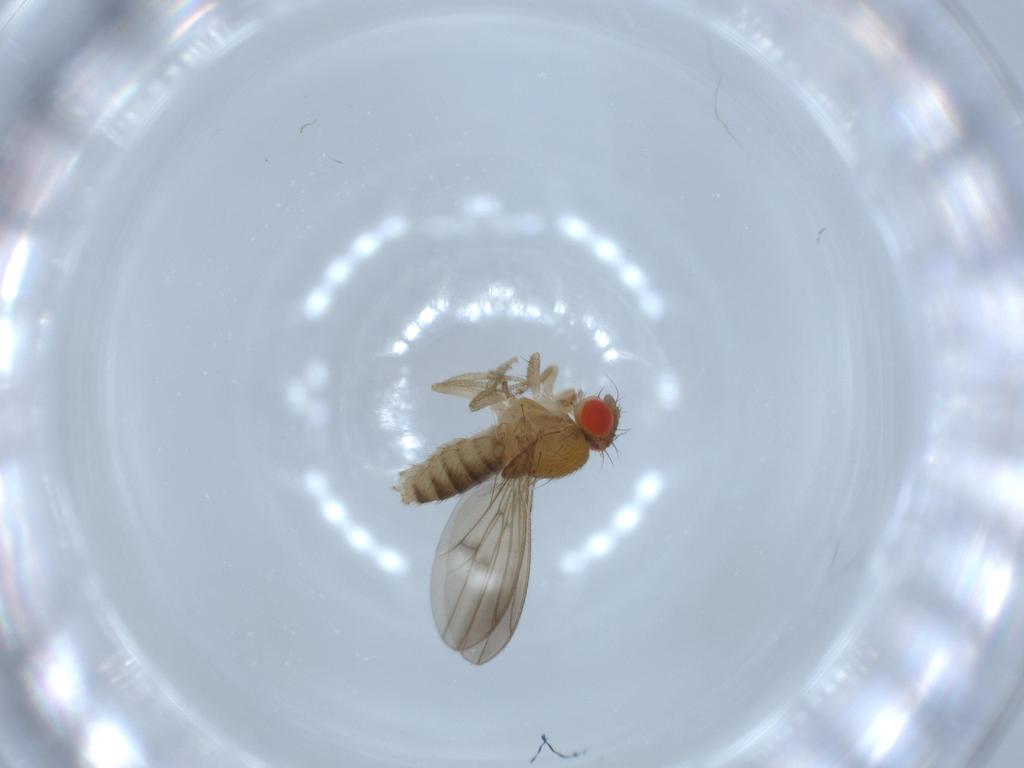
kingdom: Animalia
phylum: Arthropoda
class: Insecta
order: Diptera
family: Drosophilidae
